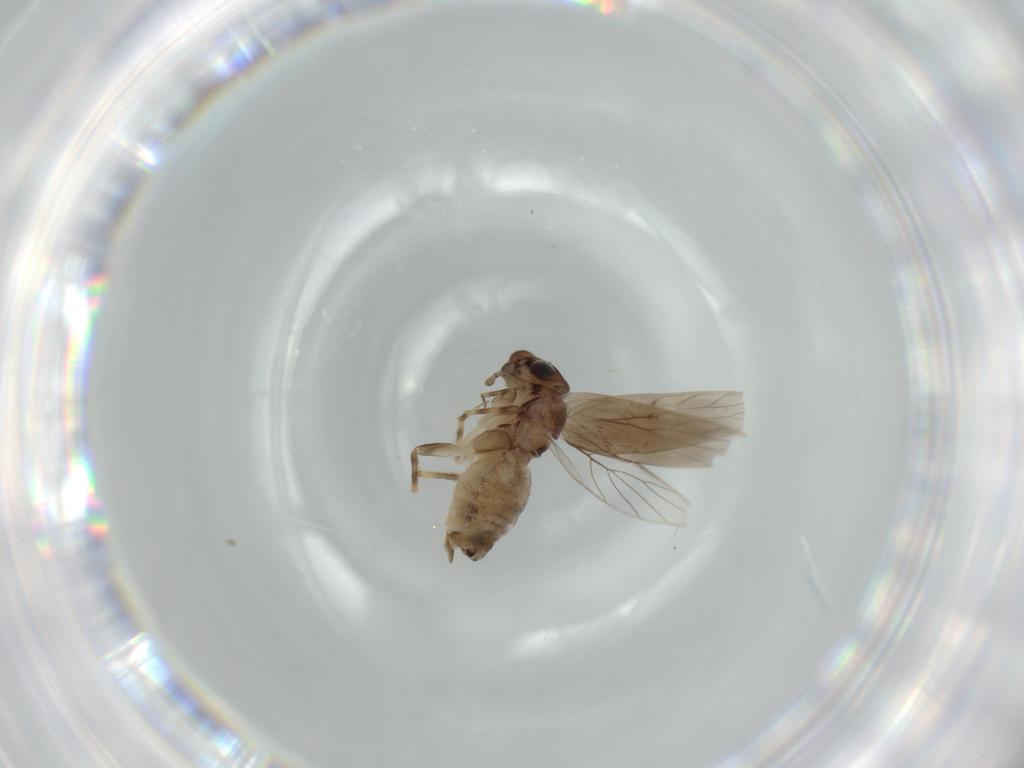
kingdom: Animalia
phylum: Arthropoda
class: Insecta
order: Psocodea
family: Lepidopsocidae
